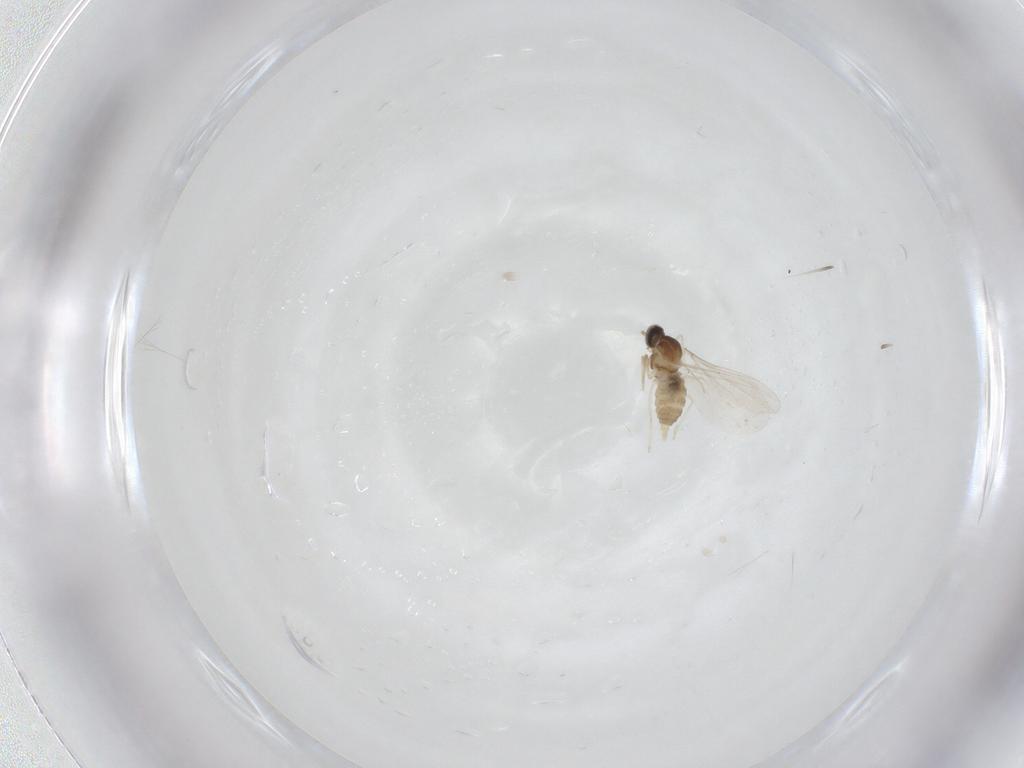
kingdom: Animalia
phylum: Arthropoda
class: Insecta
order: Diptera
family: Cecidomyiidae
